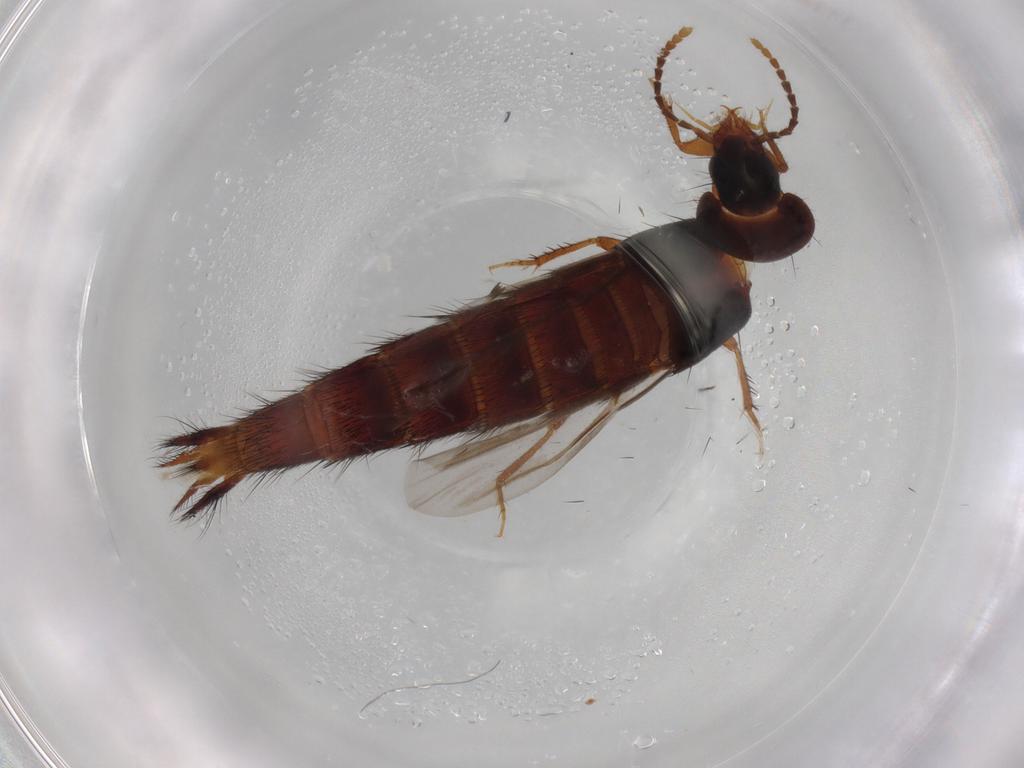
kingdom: Animalia
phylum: Arthropoda
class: Insecta
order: Coleoptera
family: Staphylinidae
